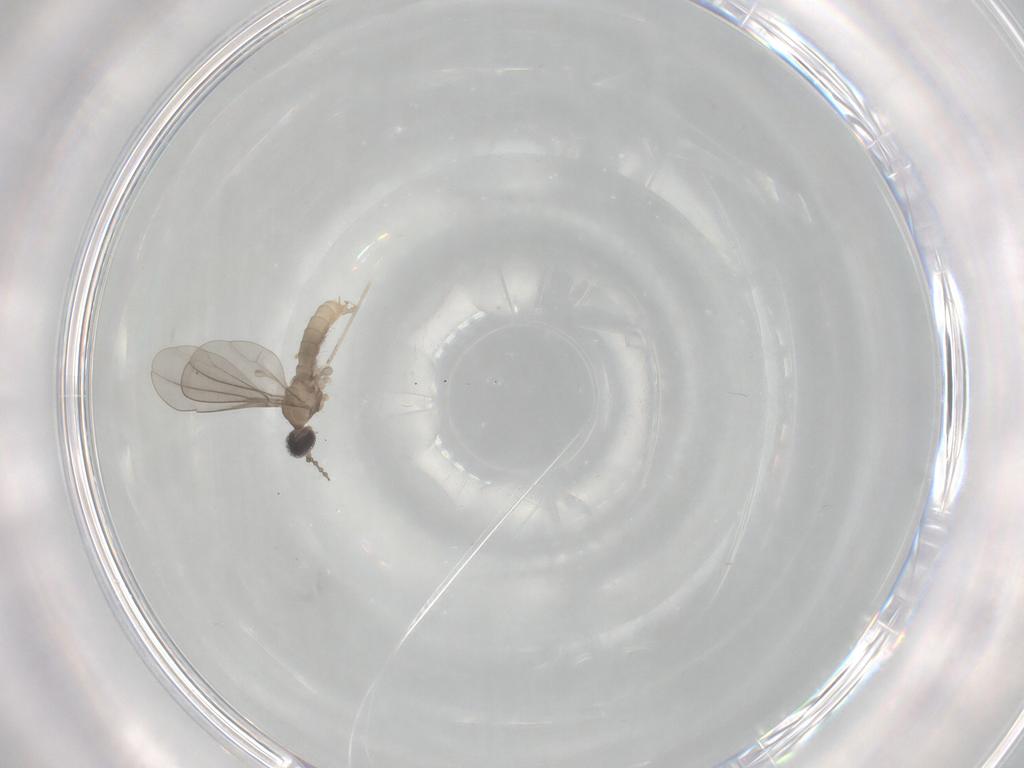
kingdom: Animalia
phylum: Arthropoda
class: Insecta
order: Diptera
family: Cecidomyiidae
